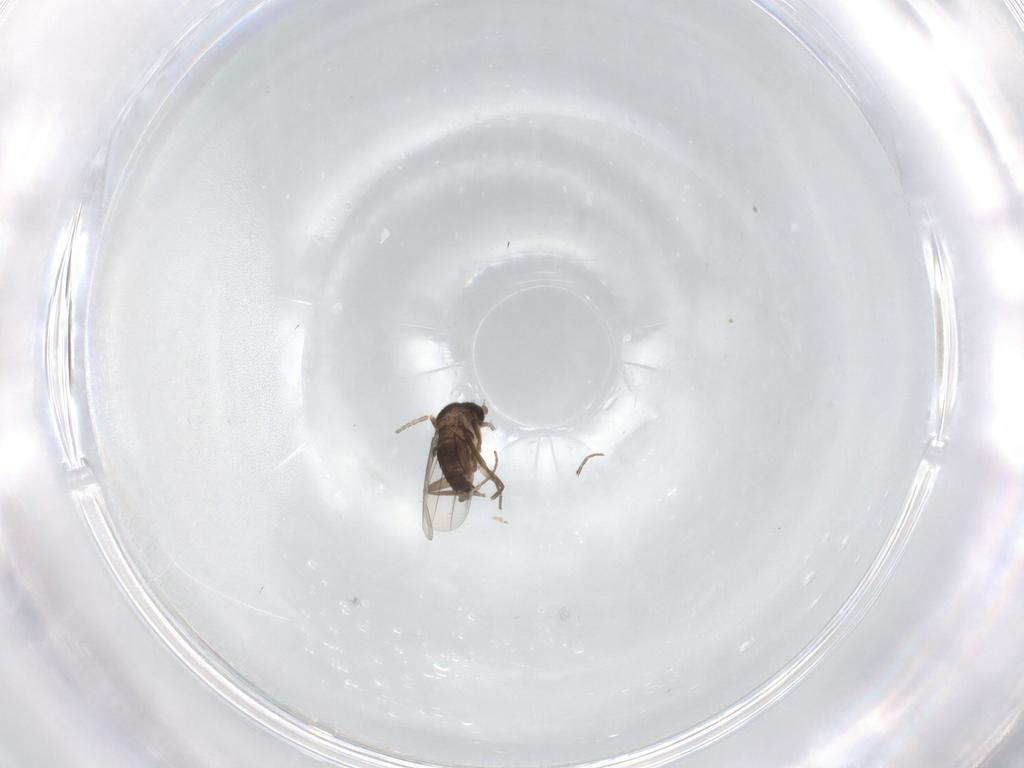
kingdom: Animalia
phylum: Arthropoda
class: Insecta
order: Diptera
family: Phoridae
